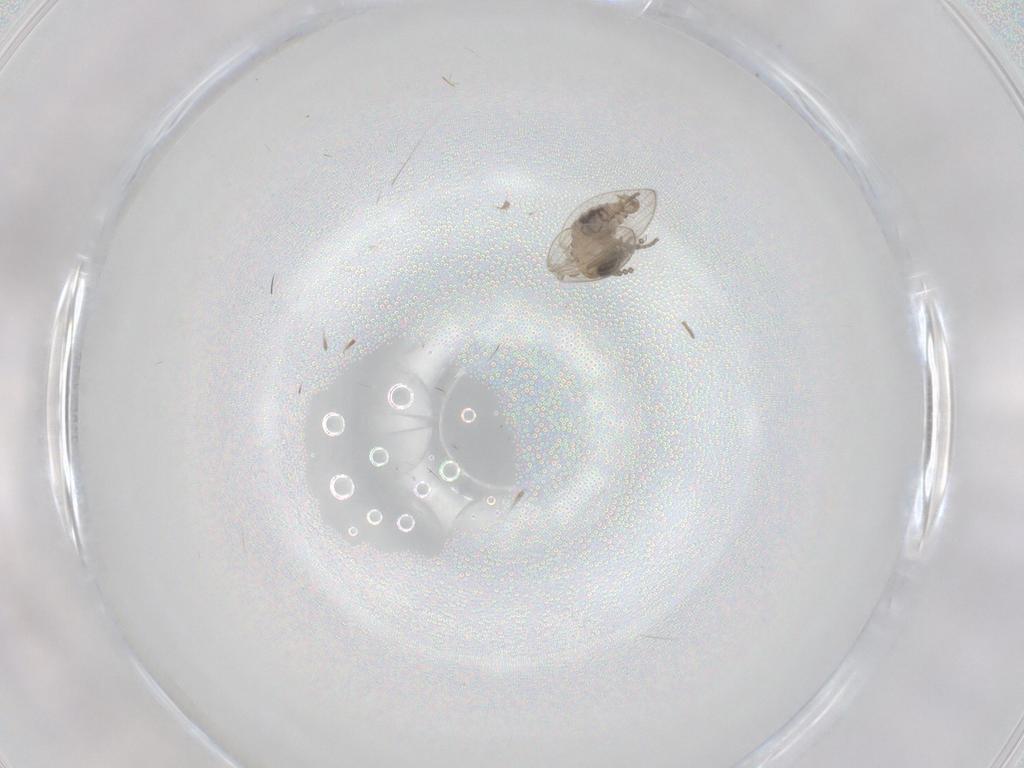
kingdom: Animalia
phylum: Arthropoda
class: Insecta
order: Diptera
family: Psychodidae
